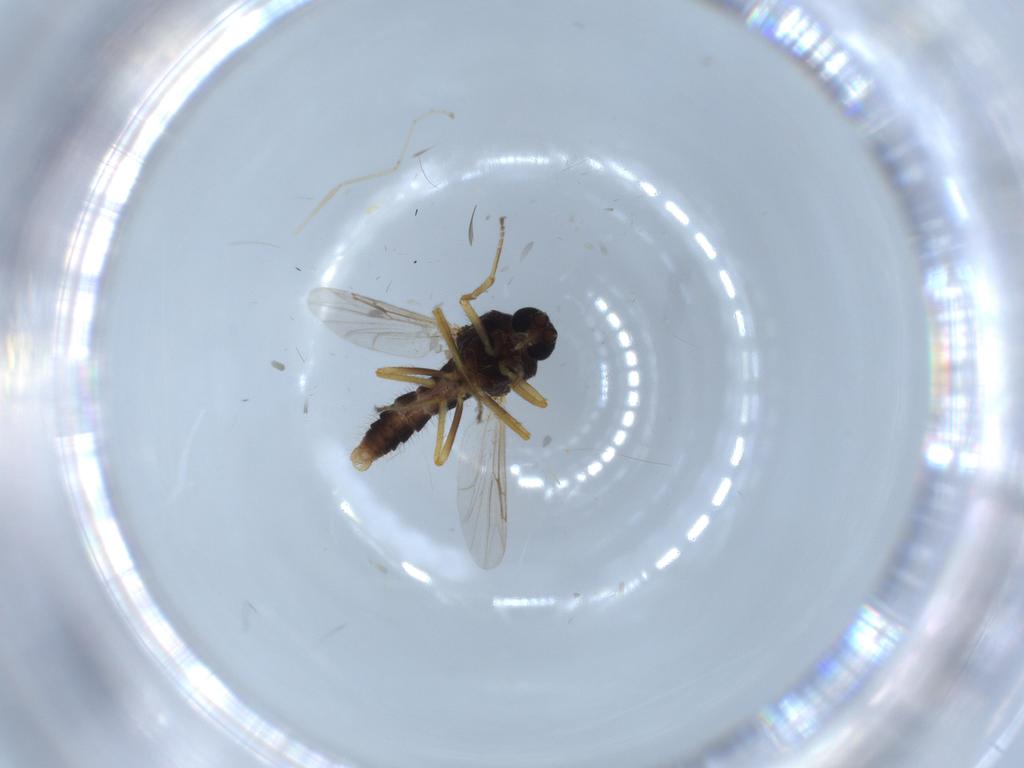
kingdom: Animalia
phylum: Arthropoda
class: Insecta
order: Diptera
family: Ceratopogonidae
